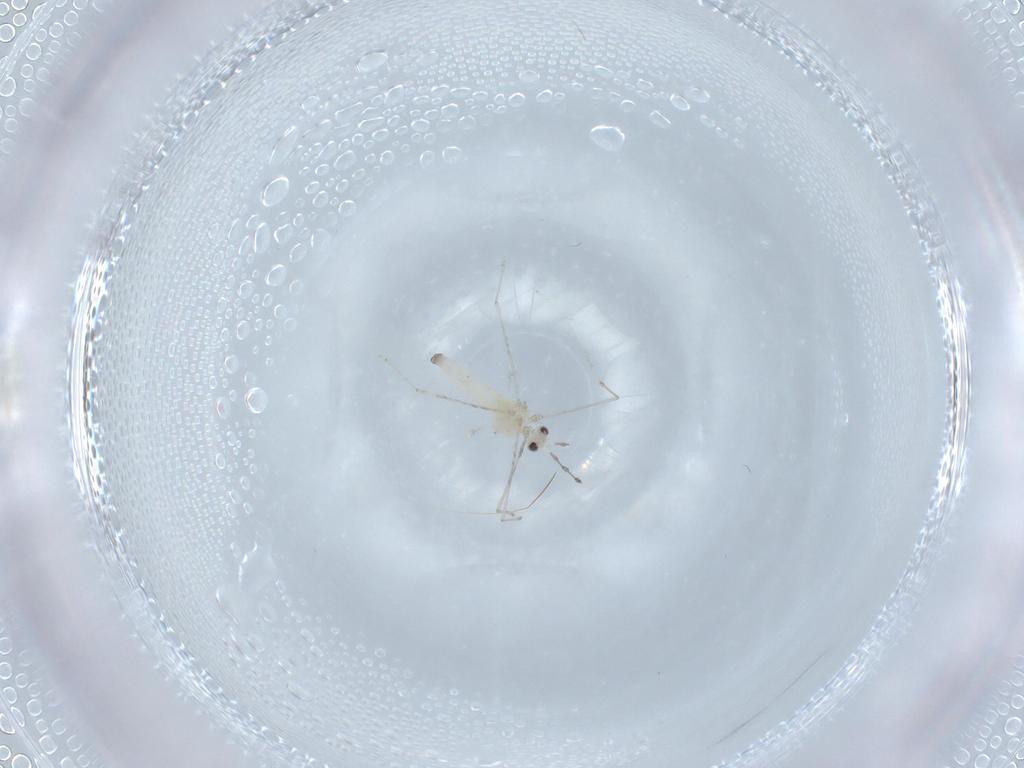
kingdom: Animalia
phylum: Arthropoda
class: Insecta
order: Diptera
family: Cecidomyiidae
